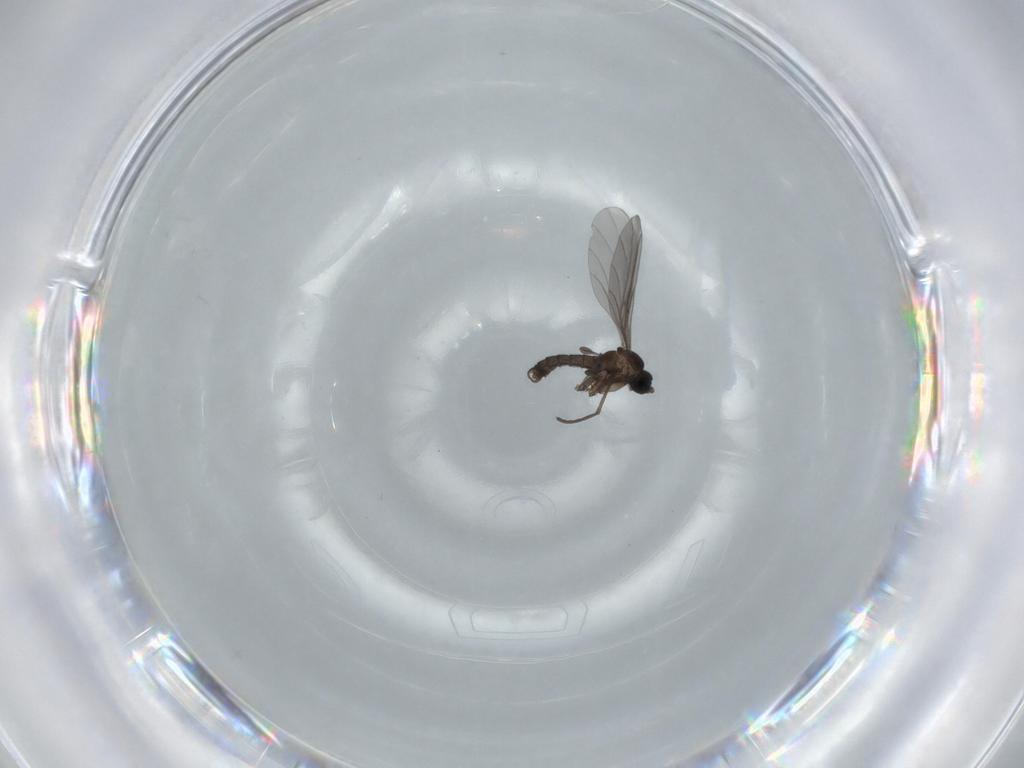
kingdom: Animalia
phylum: Arthropoda
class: Insecta
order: Diptera
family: Sciaridae
